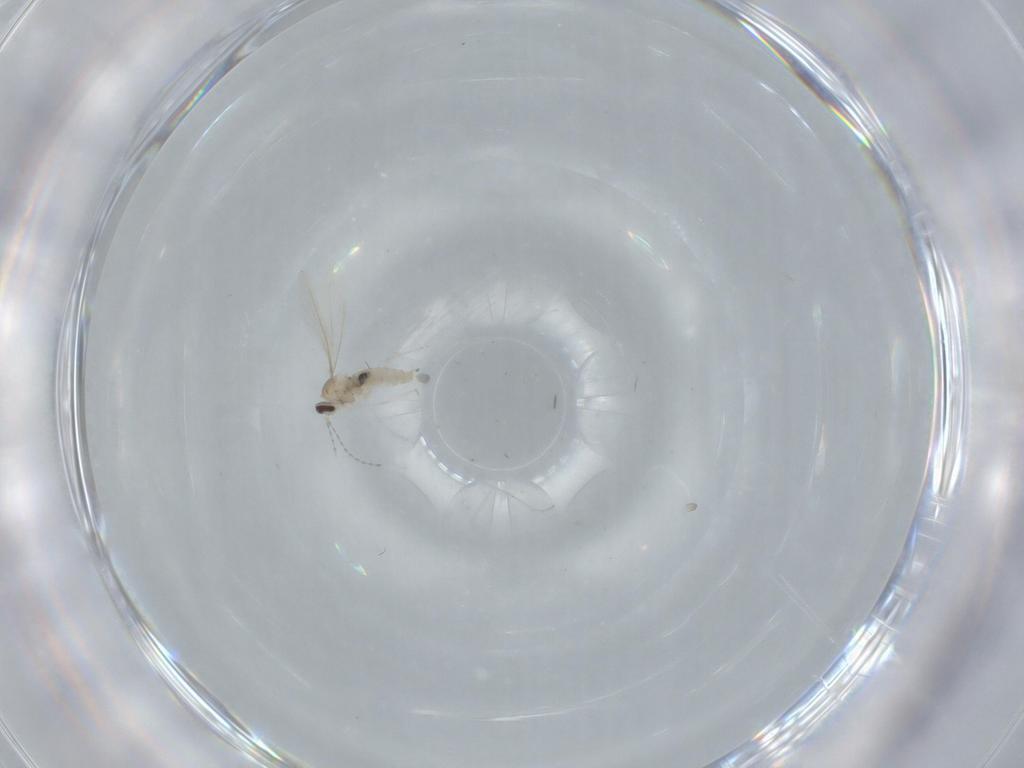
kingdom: Animalia
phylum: Arthropoda
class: Insecta
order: Diptera
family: Cecidomyiidae
